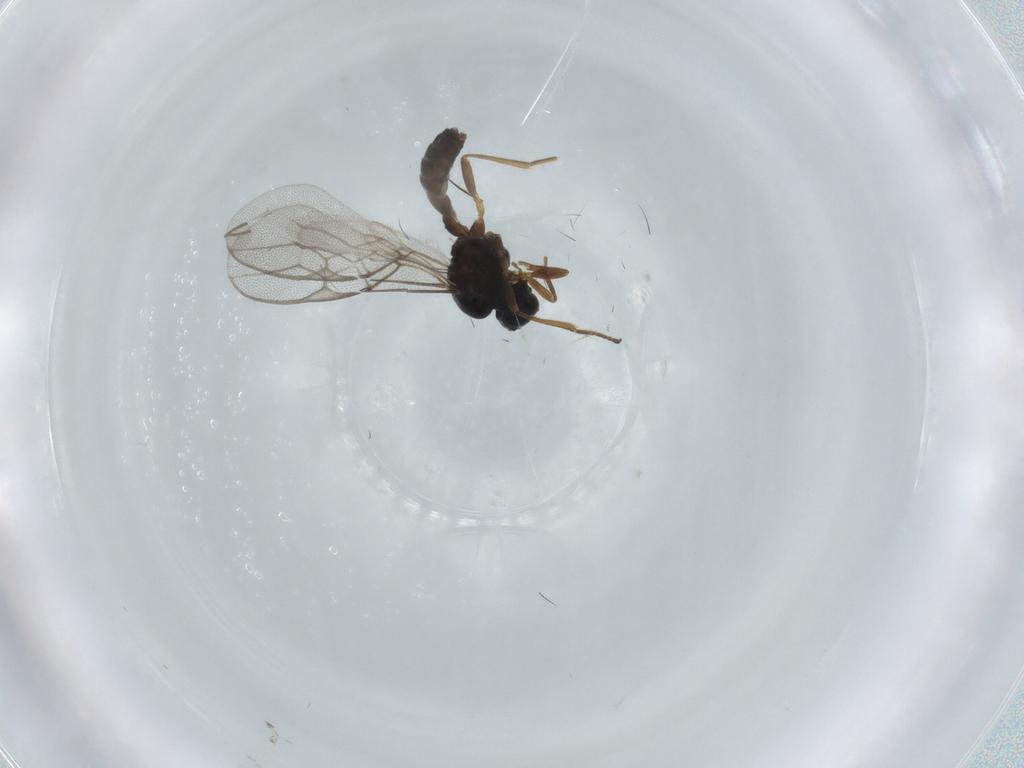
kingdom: Animalia
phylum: Arthropoda
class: Insecta
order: Hymenoptera
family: Braconidae
